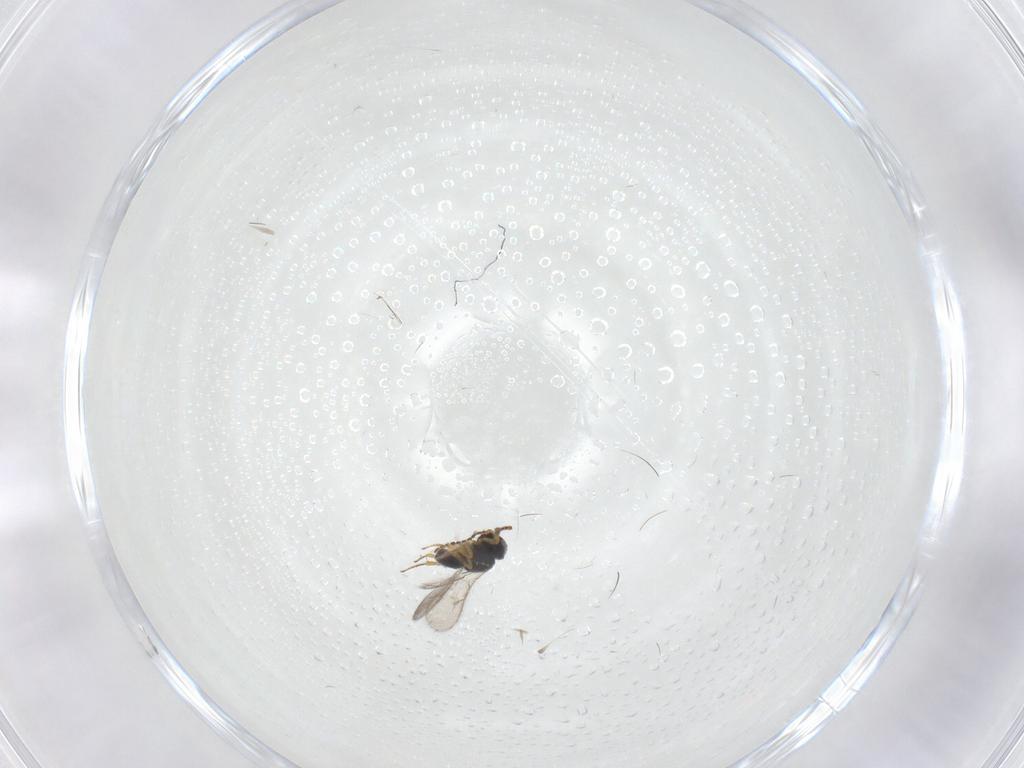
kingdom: Animalia
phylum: Arthropoda
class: Insecta
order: Hymenoptera
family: Scelionidae
